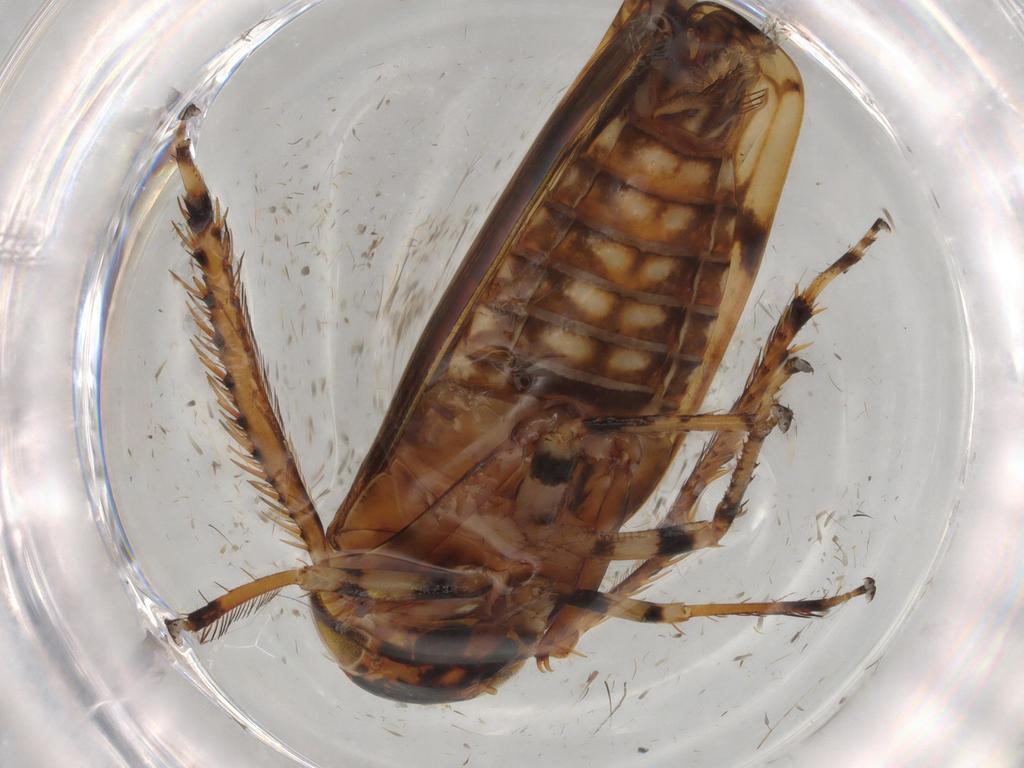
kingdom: Animalia
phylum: Arthropoda
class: Insecta
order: Hemiptera
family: Cicadellidae
